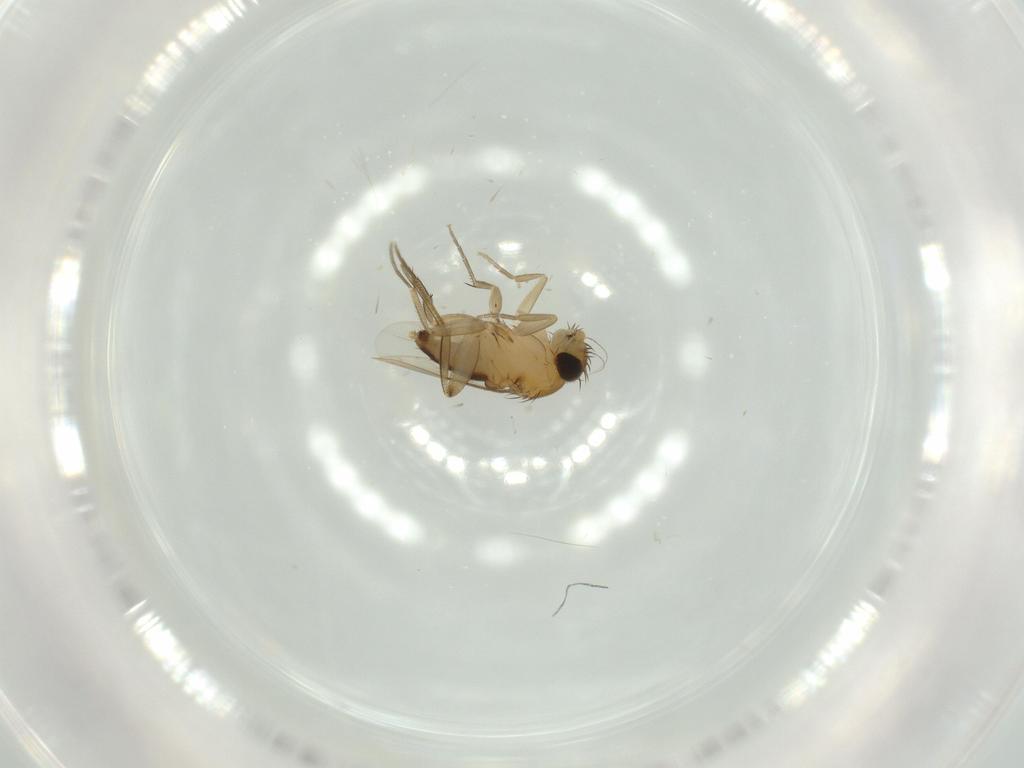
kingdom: Animalia
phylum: Arthropoda
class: Insecta
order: Diptera
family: Phoridae
